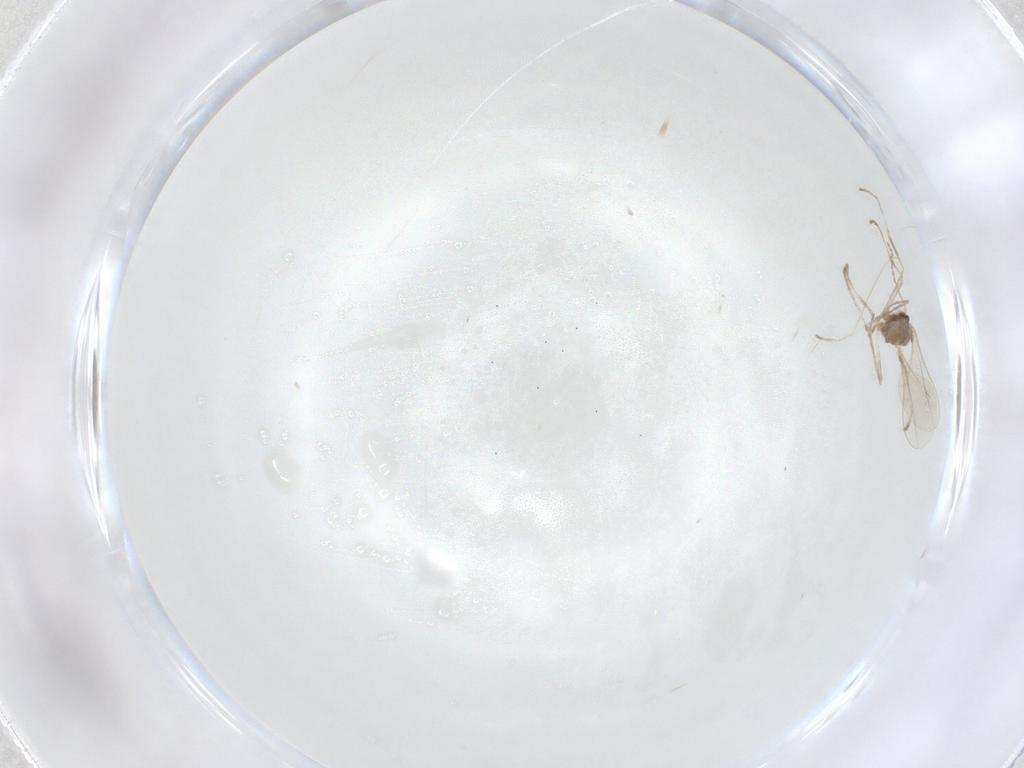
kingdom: Animalia
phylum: Arthropoda
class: Insecta
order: Diptera
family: Cecidomyiidae
